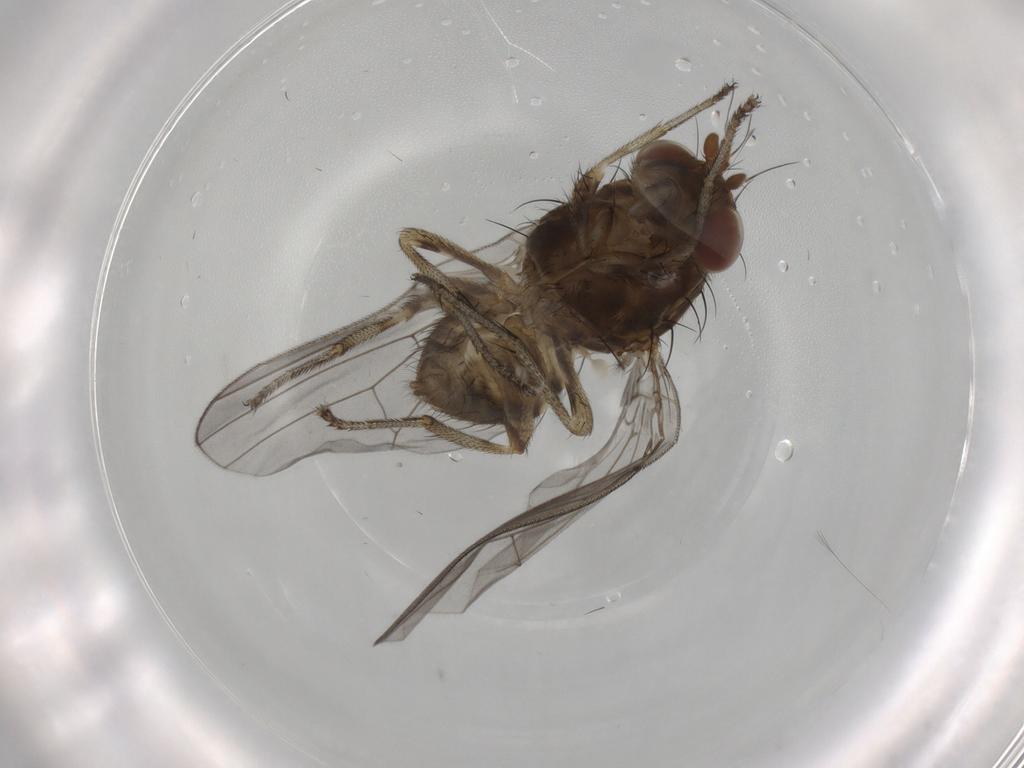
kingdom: Animalia
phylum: Arthropoda
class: Insecta
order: Diptera
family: Lauxaniidae
